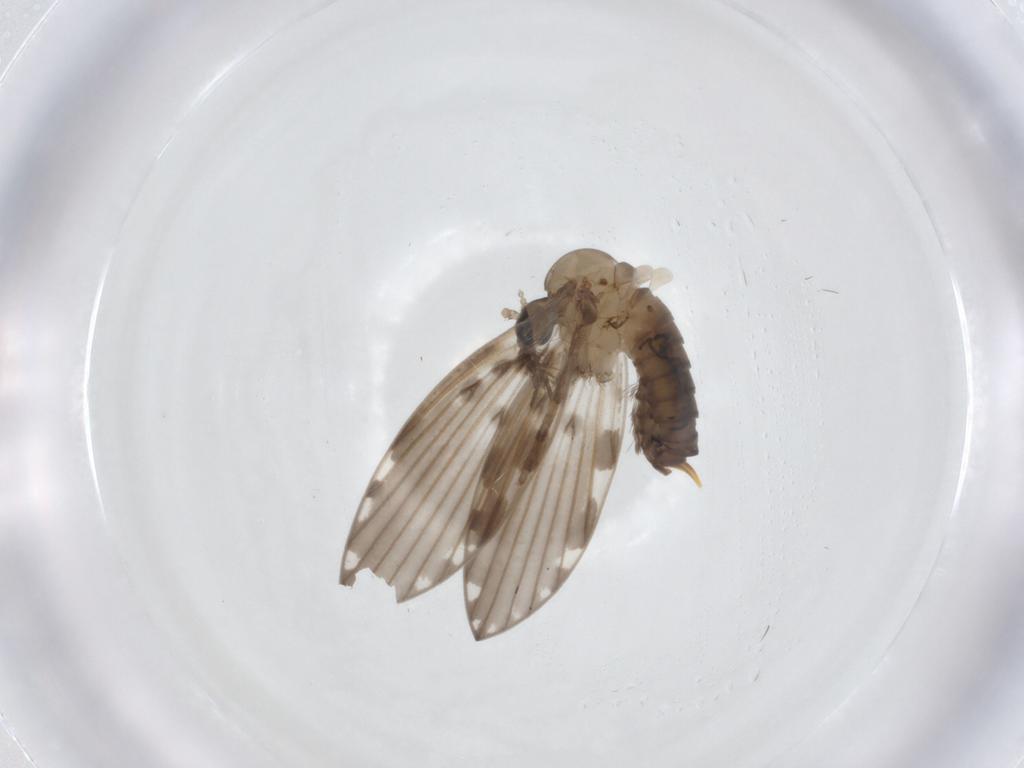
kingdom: Animalia
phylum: Arthropoda
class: Insecta
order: Diptera
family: Psychodidae
